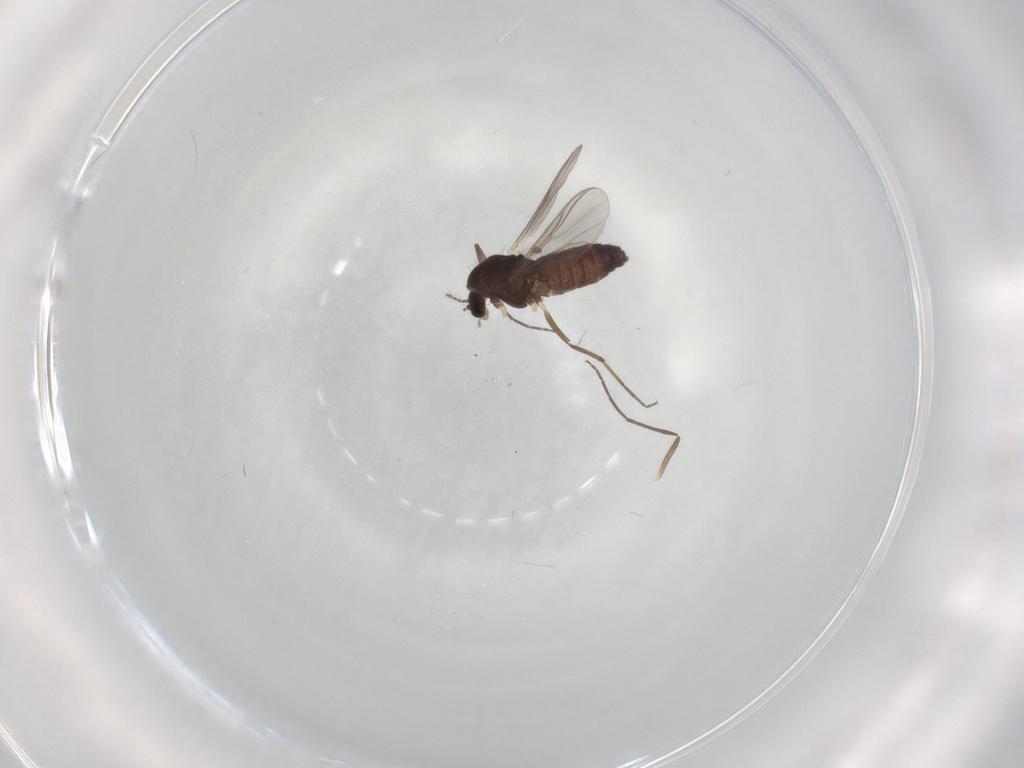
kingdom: Animalia
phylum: Arthropoda
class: Insecta
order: Diptera
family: Chironomidae
